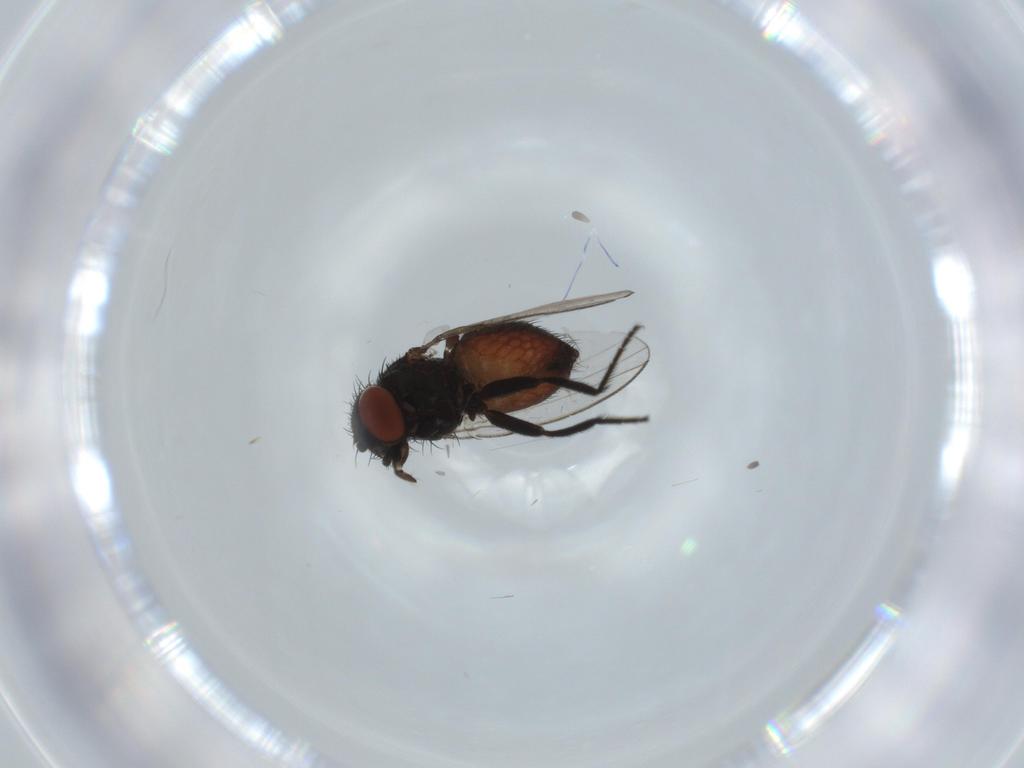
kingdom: Animalia
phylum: Arthropoda
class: Insecta
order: Diptera
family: Milichiidae
